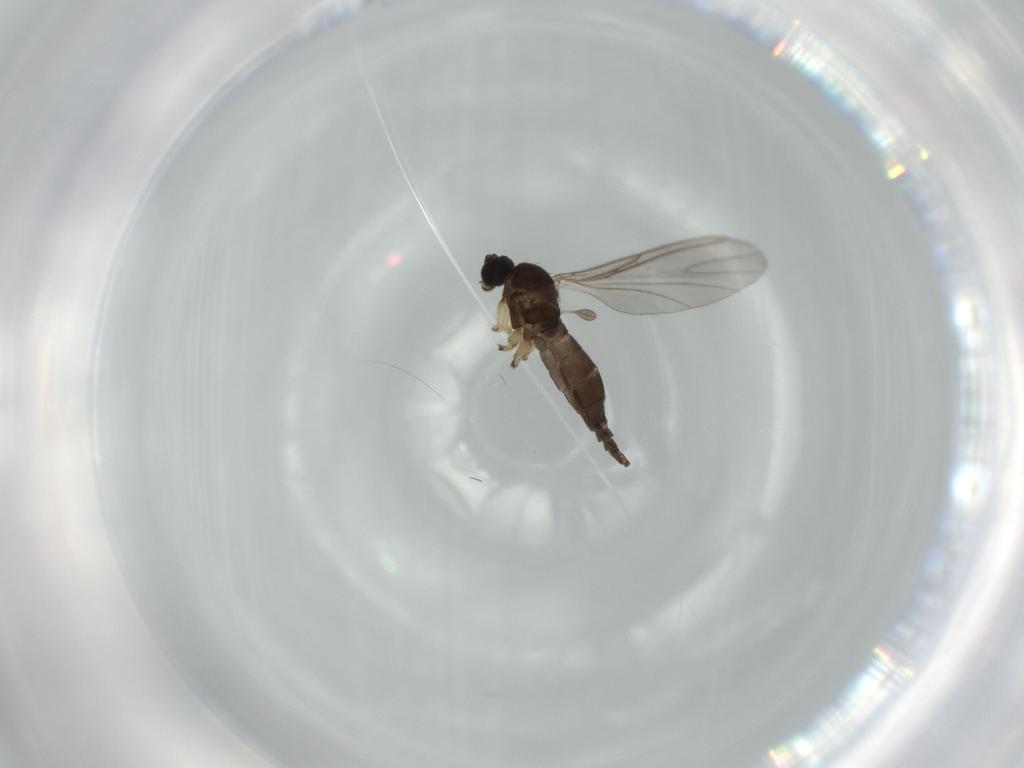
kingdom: Animalia
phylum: Arthropoda
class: Insecta
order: Diptera
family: Sciaridae
